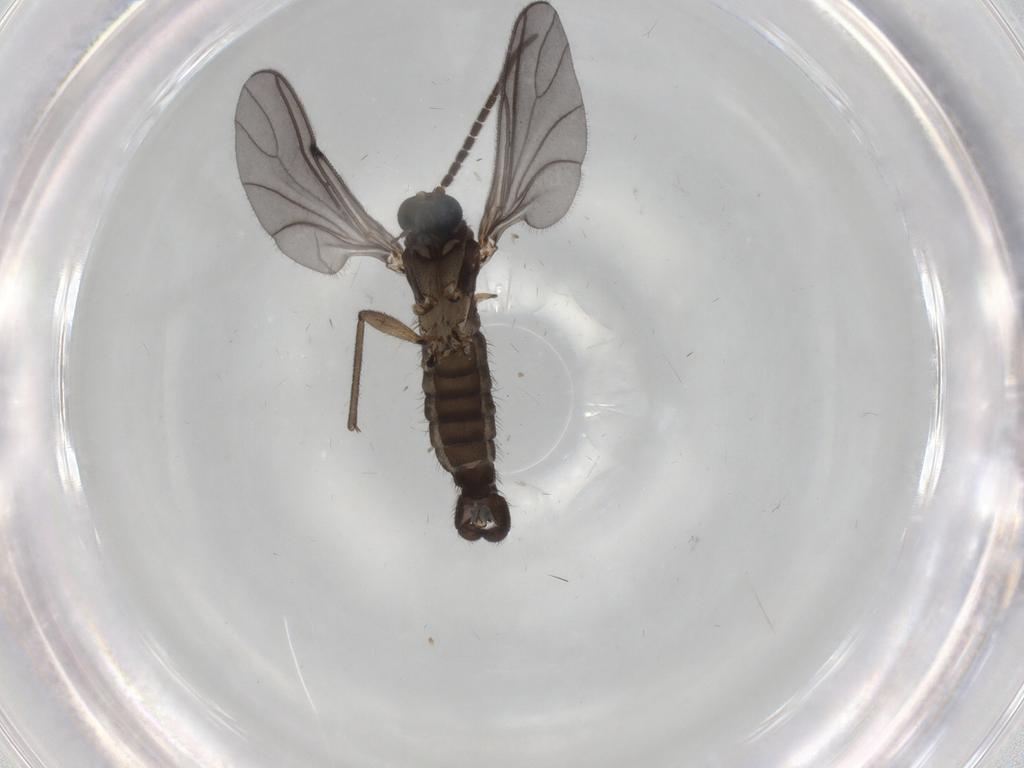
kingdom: Animalia
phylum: Arthropoda
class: Insecta
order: Diptera
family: Sciaridae
